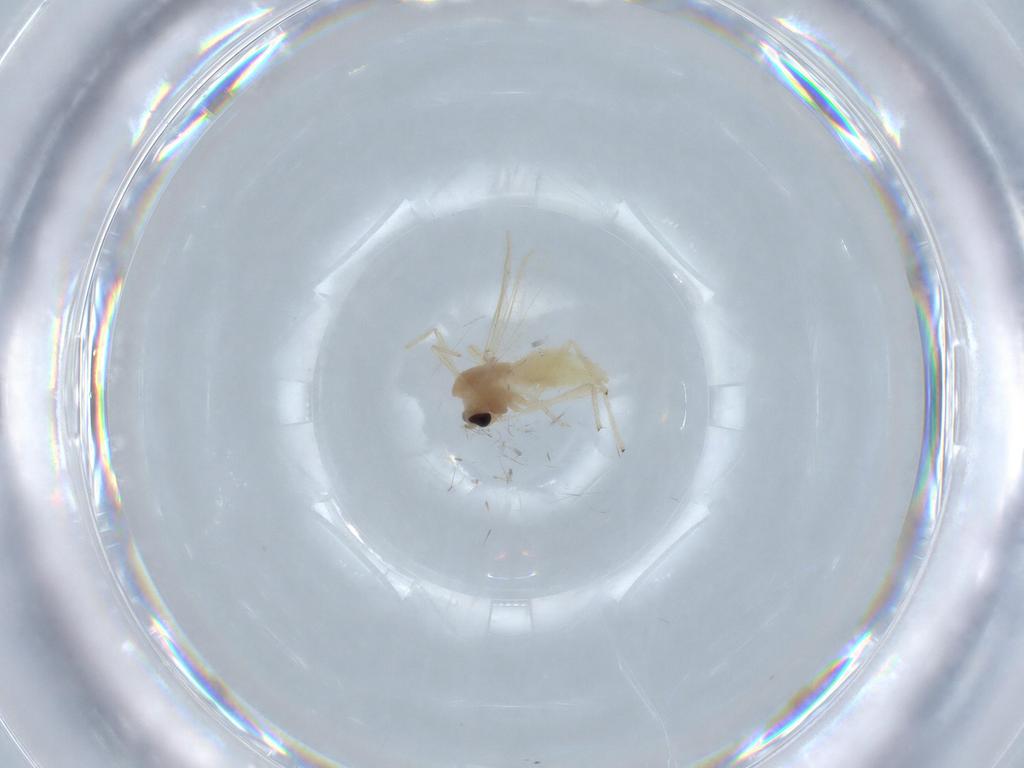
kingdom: Animalia
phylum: Arthropoda
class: Insecta
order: Diptera
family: Chironomidae
